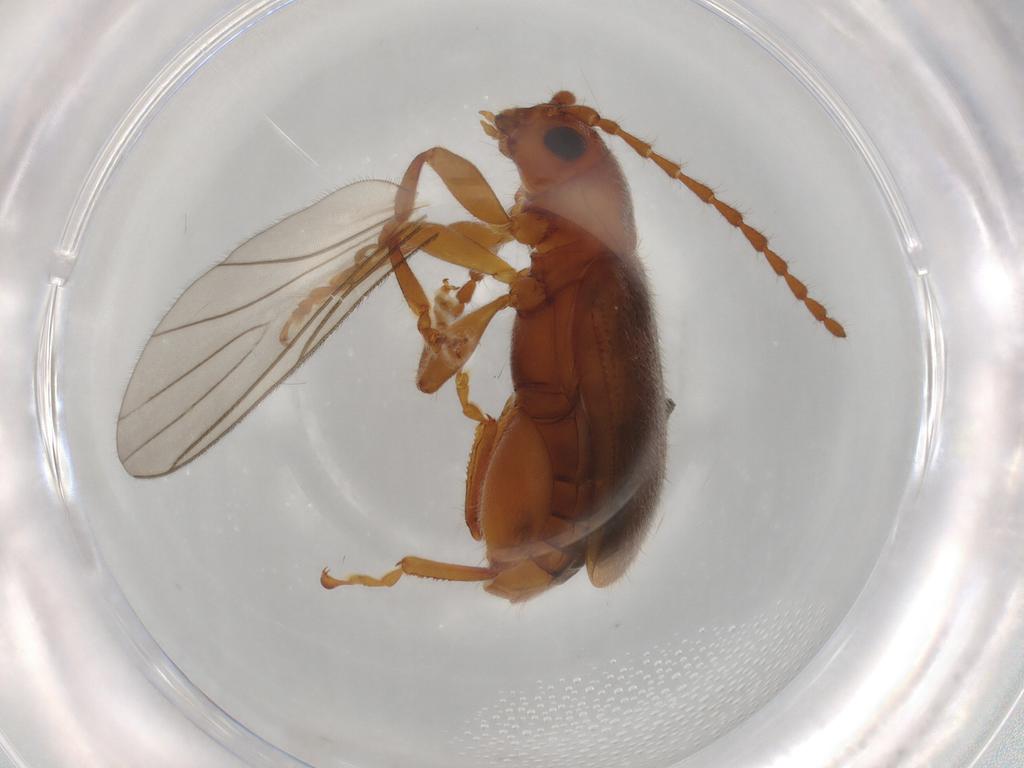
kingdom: Animalia
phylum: Arthropoda
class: Insecta
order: Coleoptera
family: Chrysomelidae
